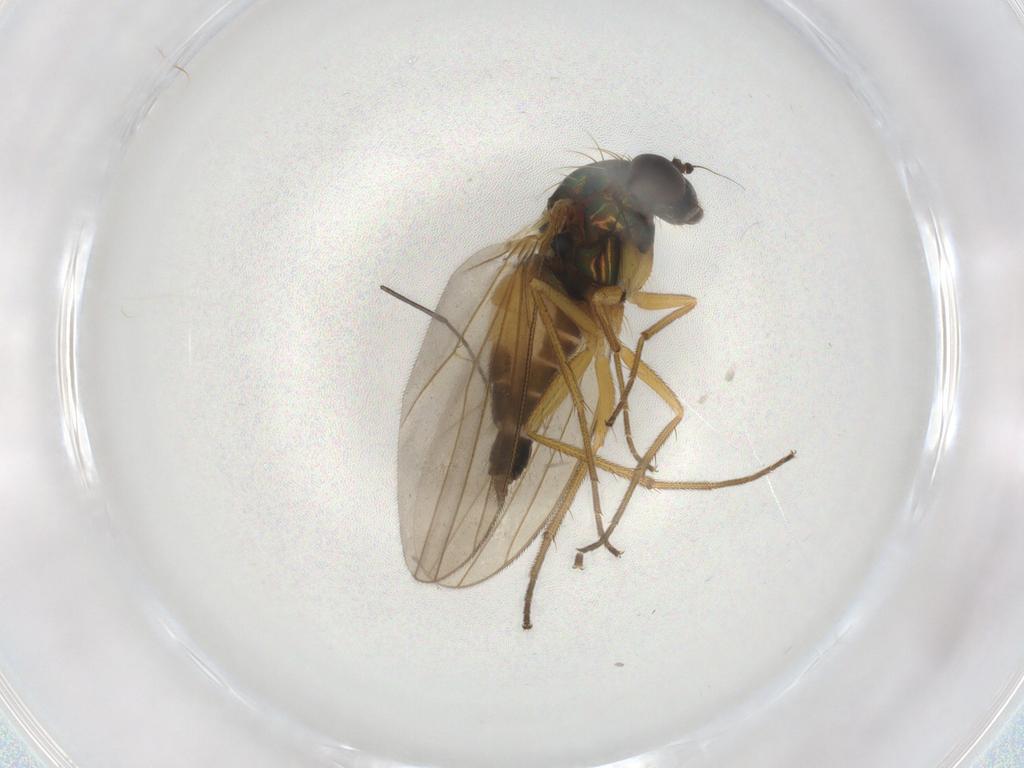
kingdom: Animalia
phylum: Arthropoda
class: Insecta
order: Diptera
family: Dolichopodidae
